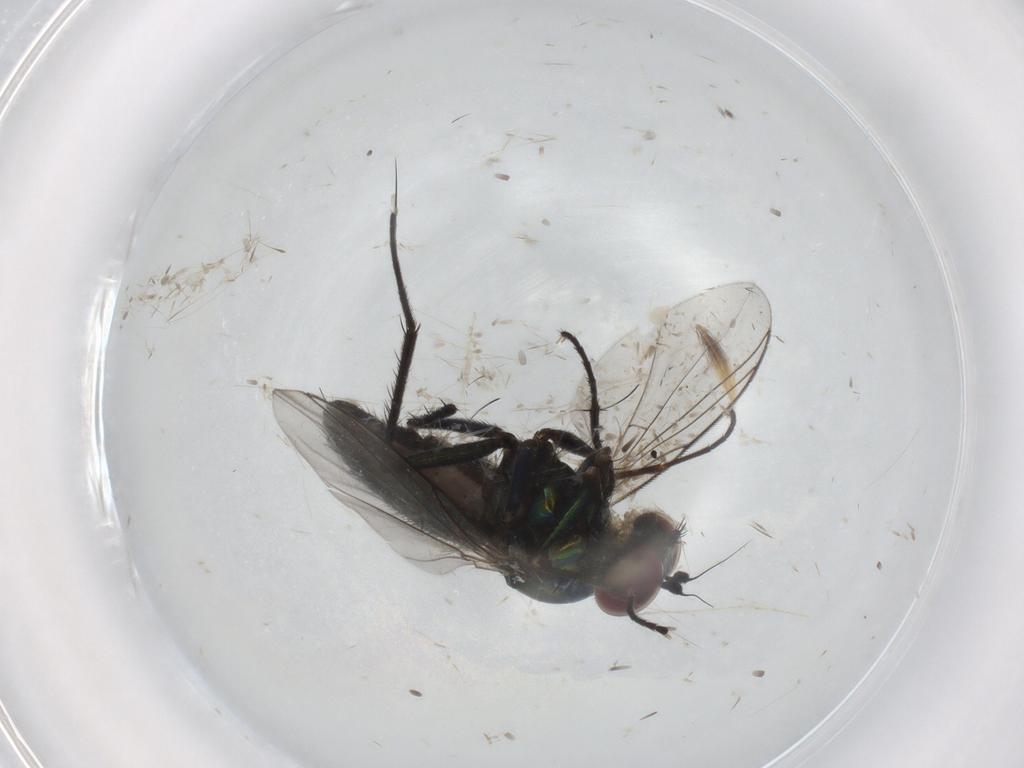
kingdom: Animalia
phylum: Arthropoda
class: Insecta
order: Diptera
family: Dolichopodidae
